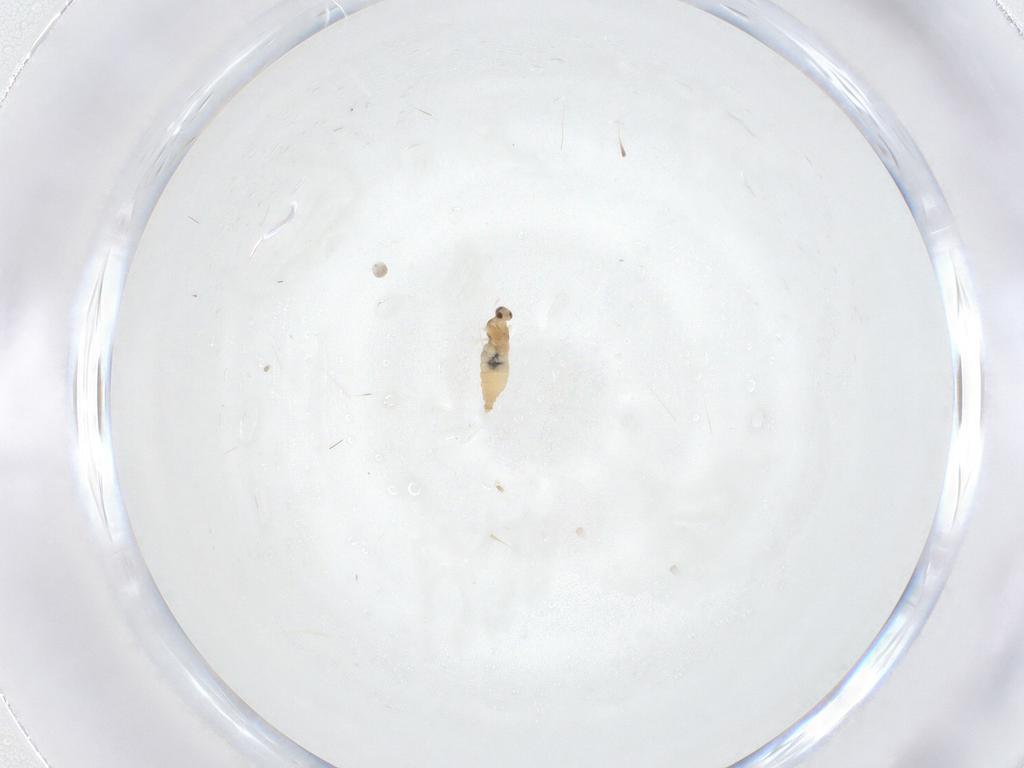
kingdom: Animalia
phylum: Arthropoda
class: Insecta
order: Diptera
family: Cecidomyiidae
